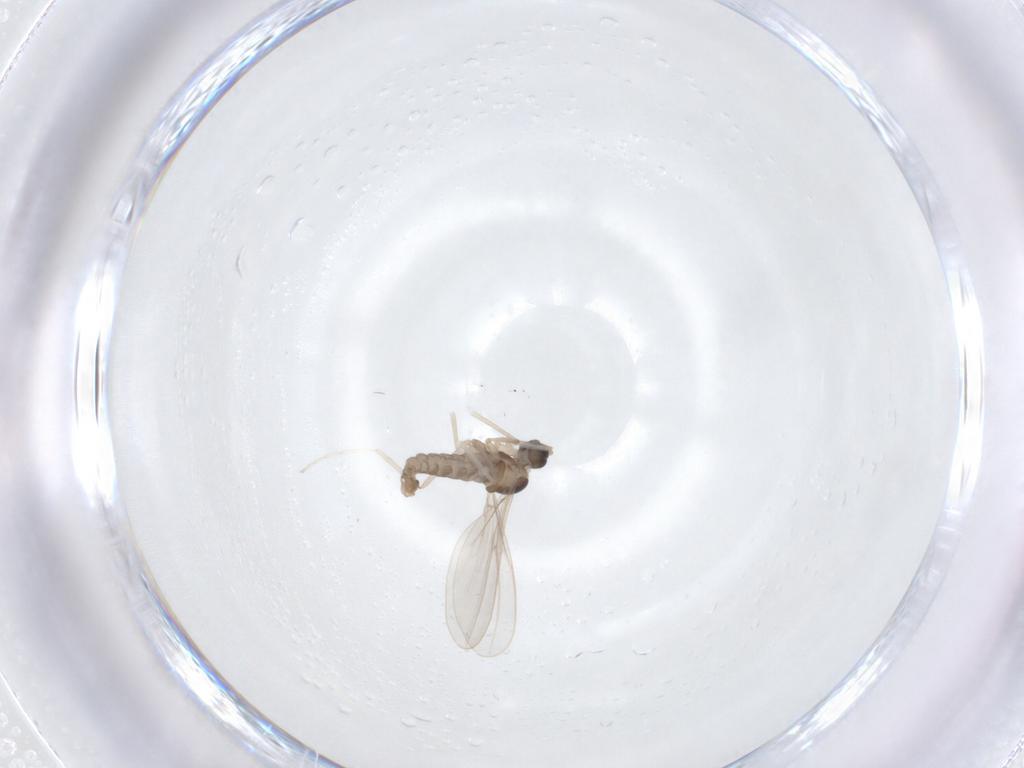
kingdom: Animalia
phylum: Arthropoda
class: Insecta
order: Diptera
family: Cecidomyiidae
